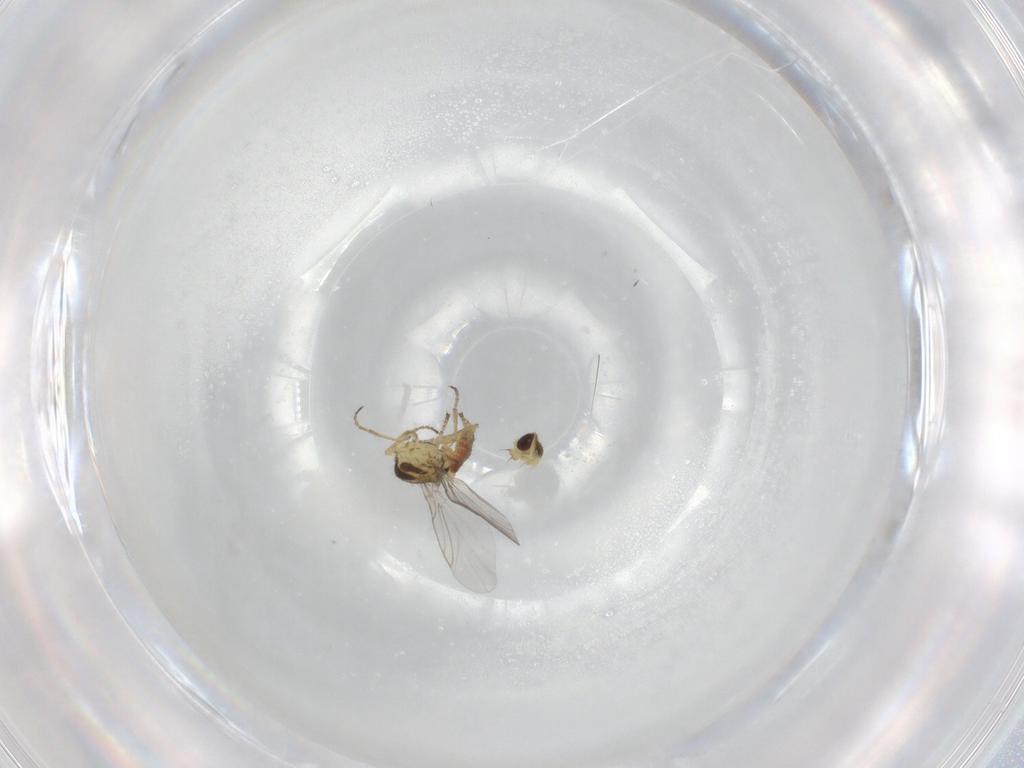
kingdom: Animalia
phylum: Arthropoda
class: Insecta
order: Diptera
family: Agromyzidae
